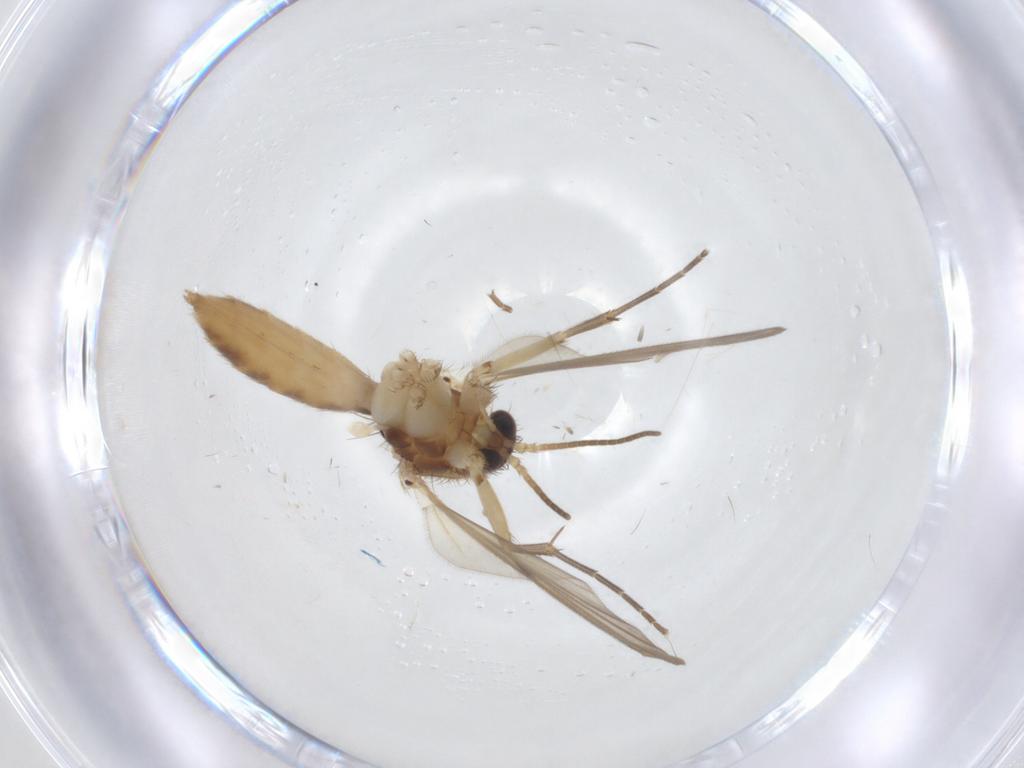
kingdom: Animalia
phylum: Arthropoda
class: Insecta
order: Diptera
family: Mycetophilidae
